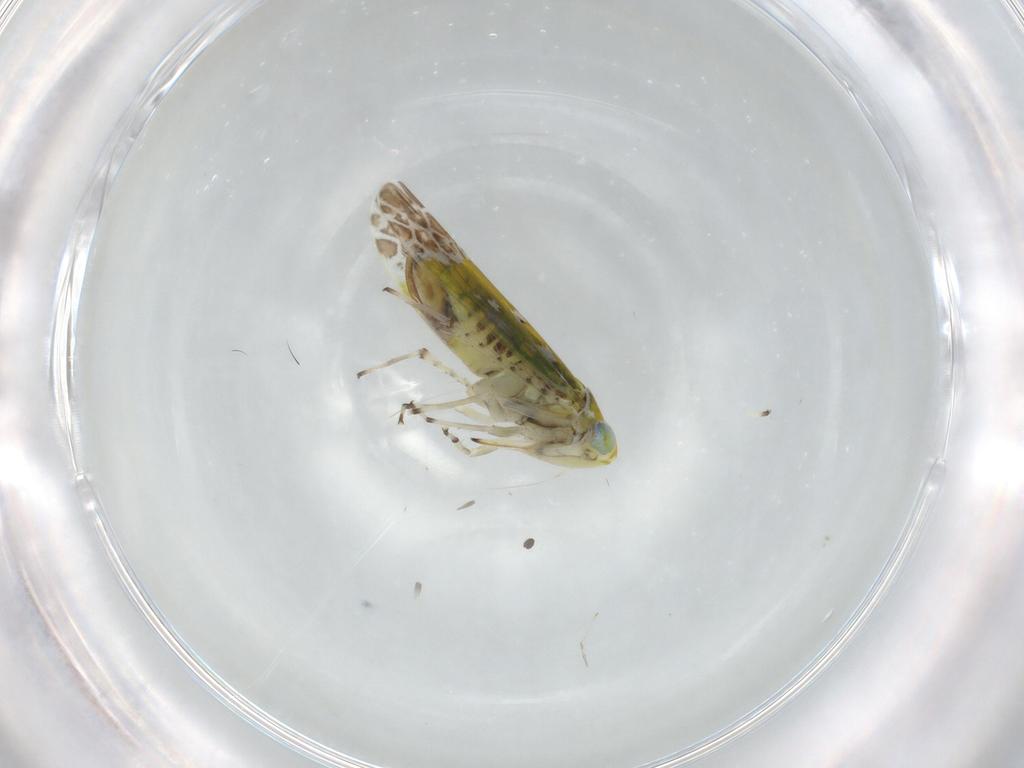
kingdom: Animalia
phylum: Arthropoda
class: Insecta
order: Hemiptera
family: Cicadellidae
